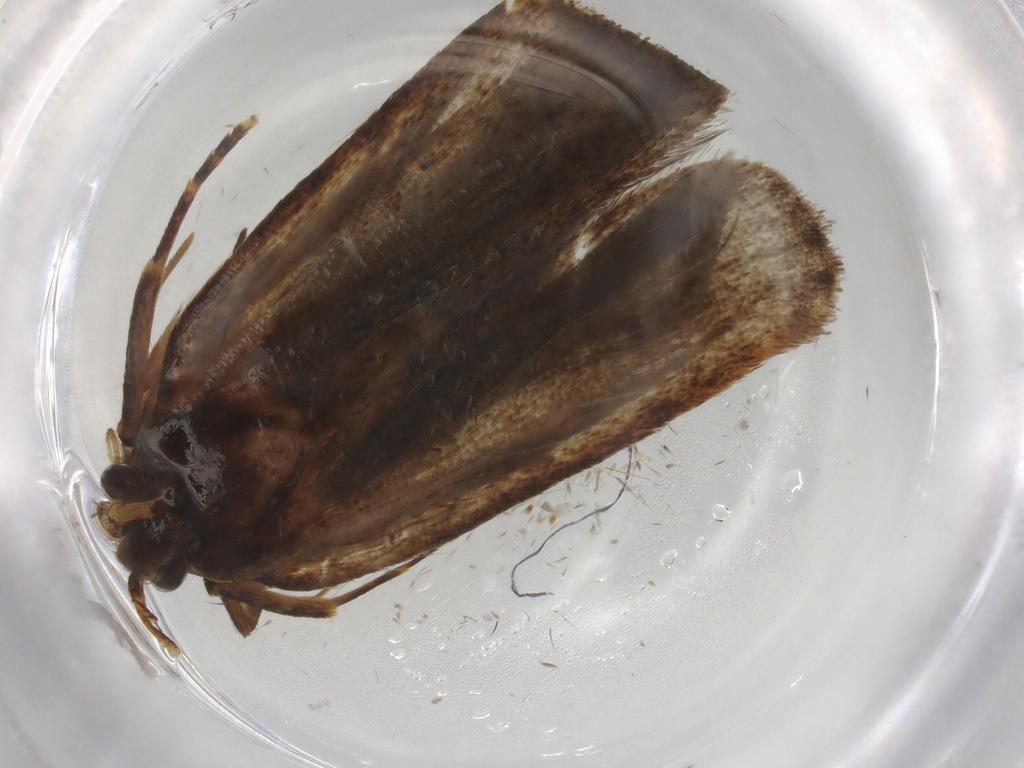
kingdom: Animalia
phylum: Arthropoda
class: Insecta
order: Lepidoptera
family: Autostichidae
